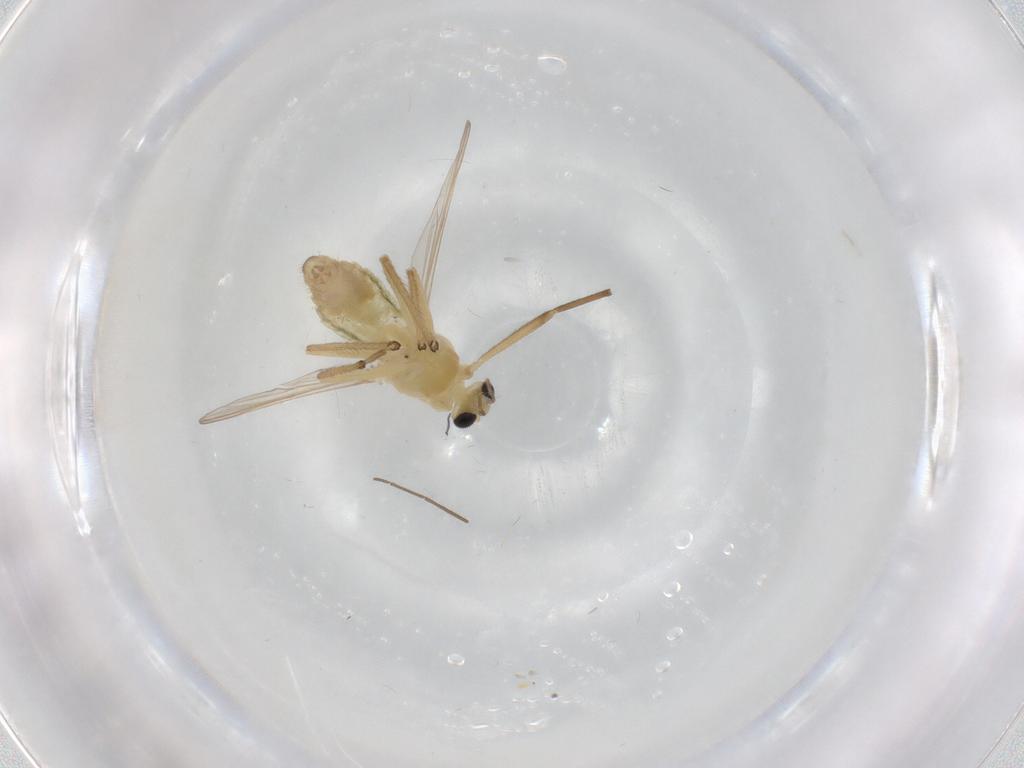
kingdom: Animalia
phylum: Arthropoda
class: Insecta
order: Diptera
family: Chironomidae
